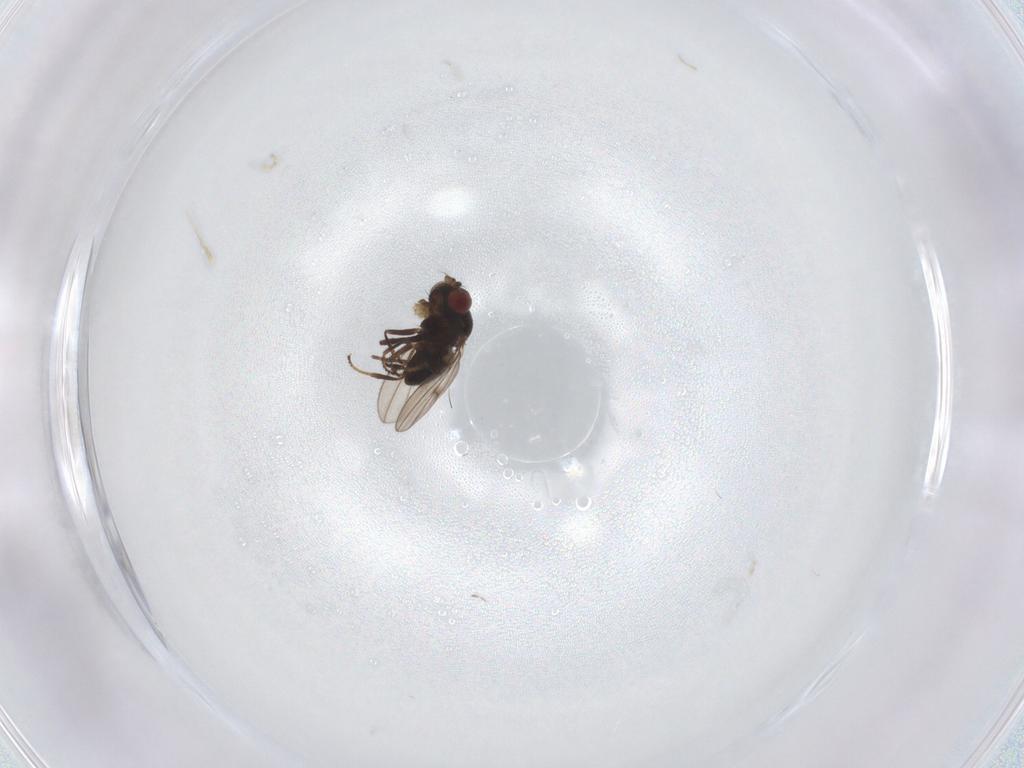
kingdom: Animalia
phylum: Arthropoda
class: Insecta
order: Diptera
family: Ephydridae
